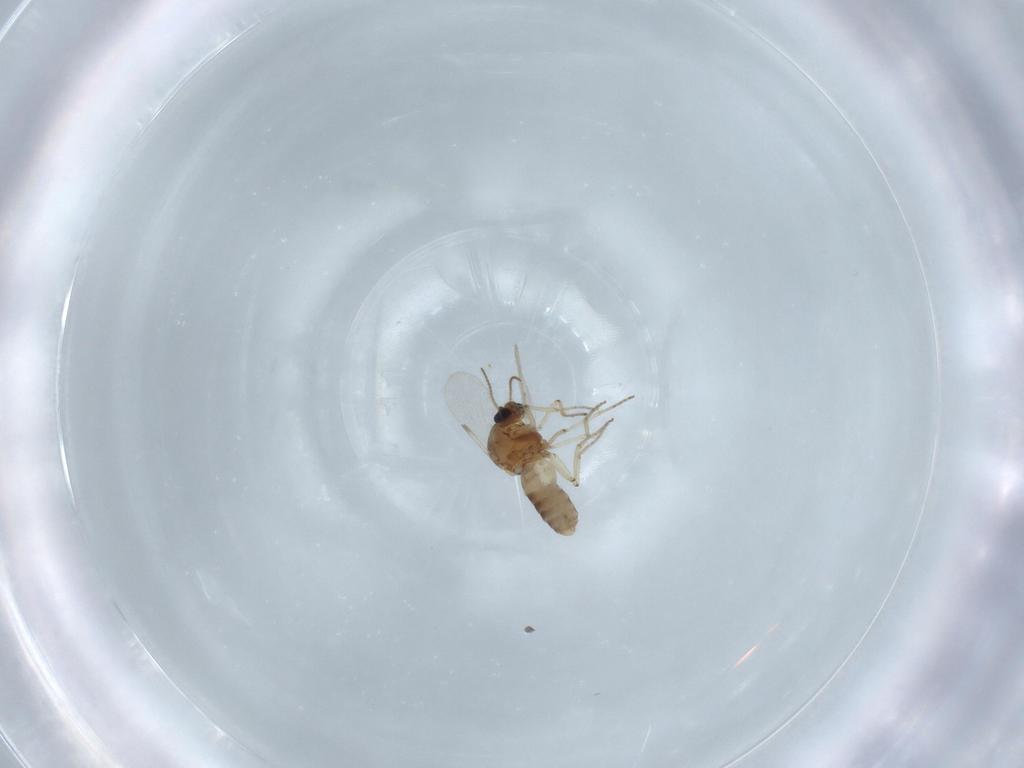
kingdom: Animalia
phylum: Arthropoda
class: Insecta
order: Diptera
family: Ceratopogonidae
